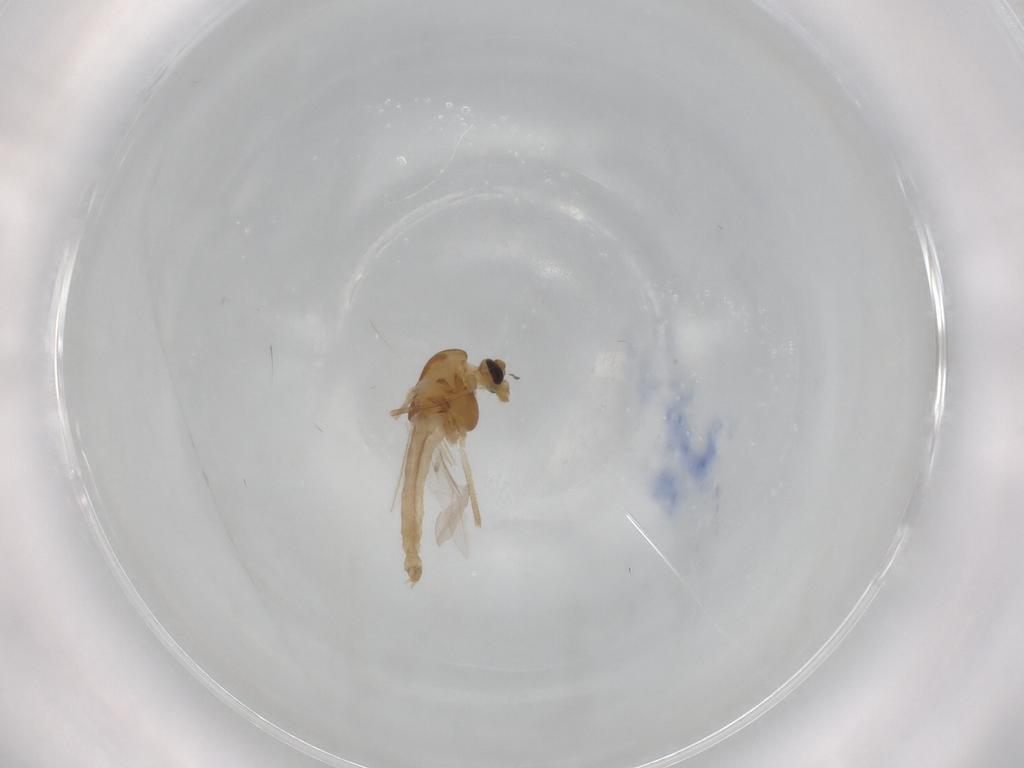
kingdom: Animalia
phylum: Arthropoda
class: Insecta
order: Diptera
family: Chironomidae
